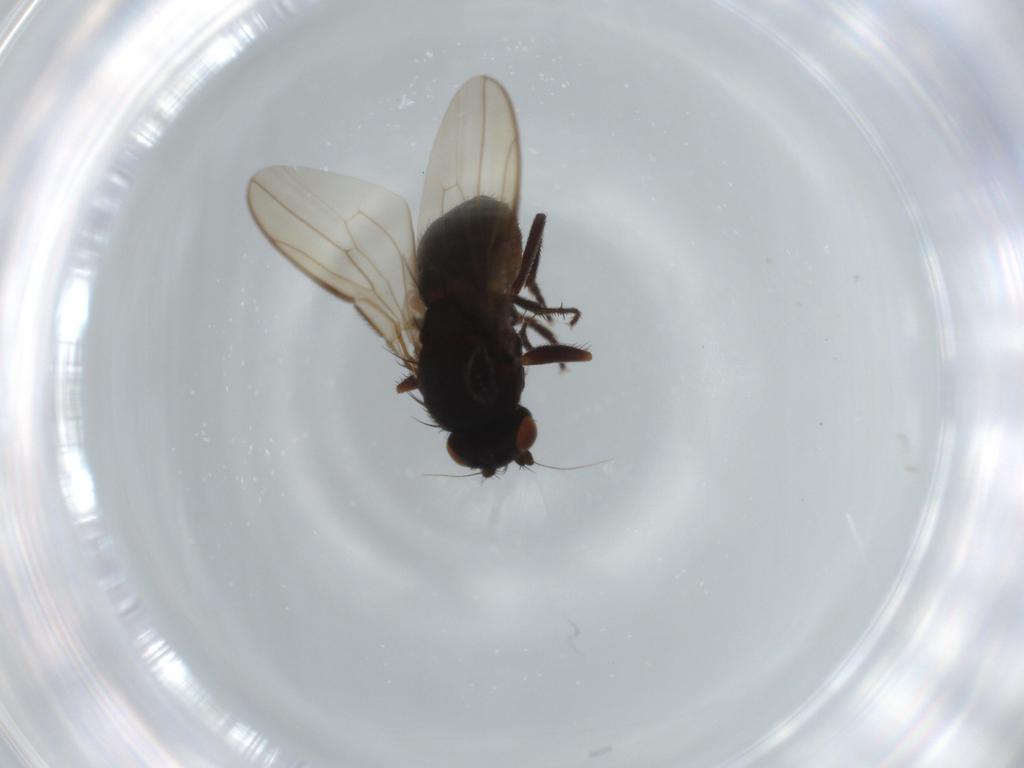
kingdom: Animalia
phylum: Arthropoda
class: Insecta
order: Diptera
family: Sphaeroceridae
